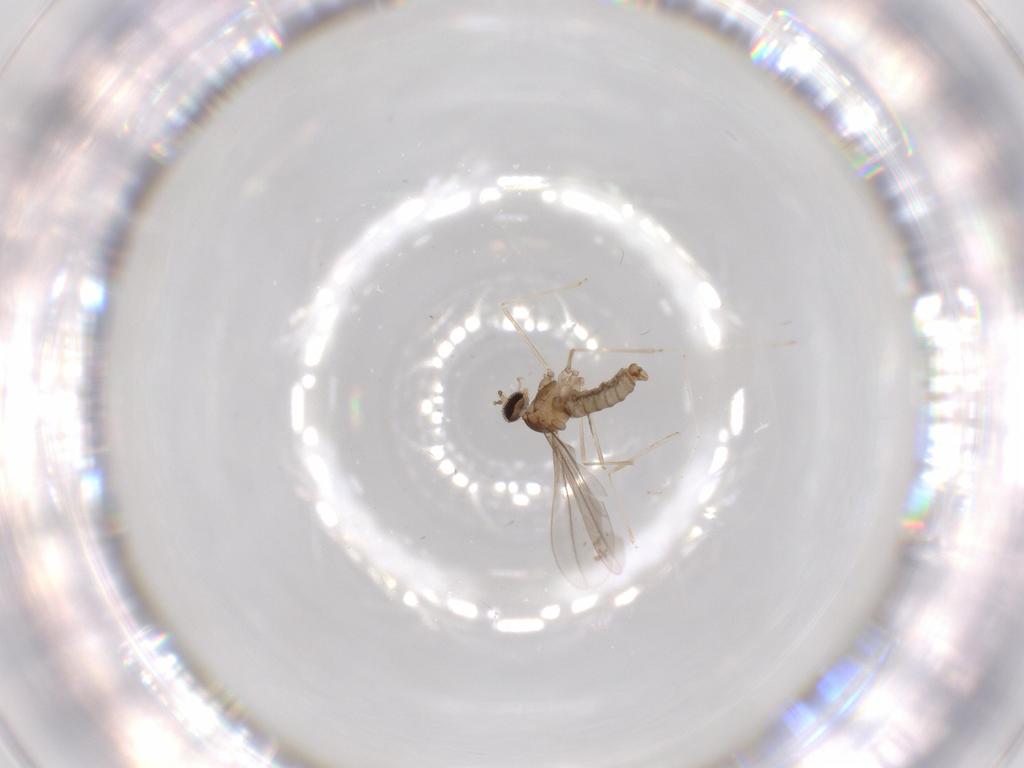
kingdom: Animalia
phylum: Arthropoda
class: Insecta
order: Diptera
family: Cecidomyiidae
